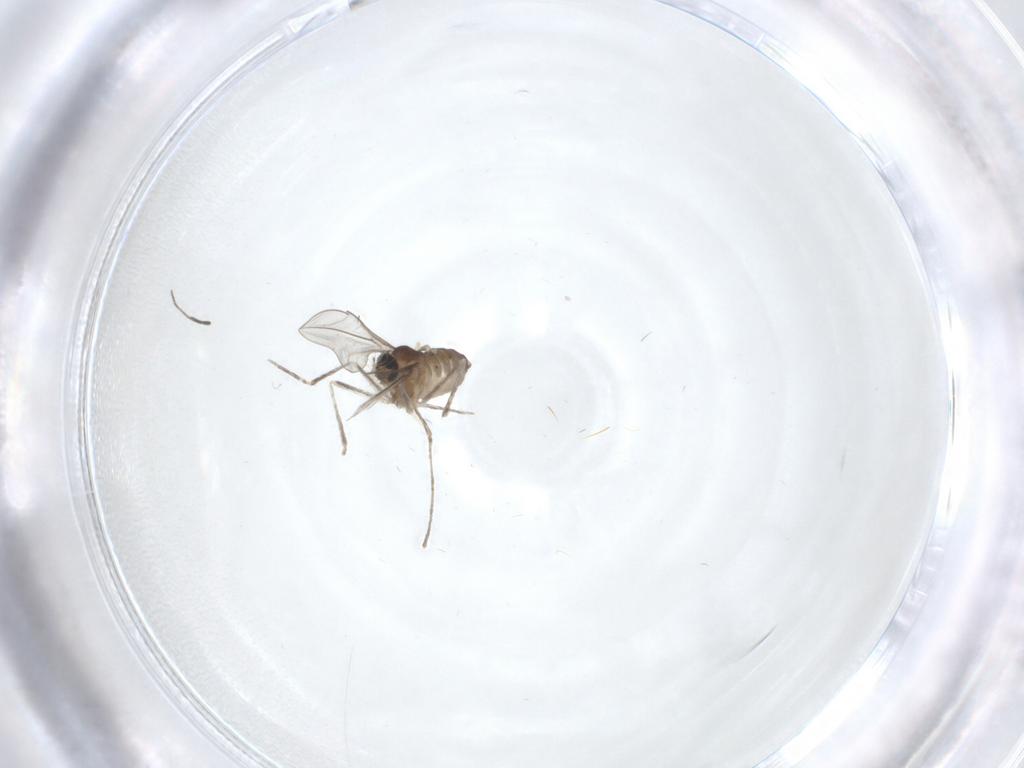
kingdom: Animalia
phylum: Arthropoda
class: Insecta
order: Diptera
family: Cecidomyiidae
